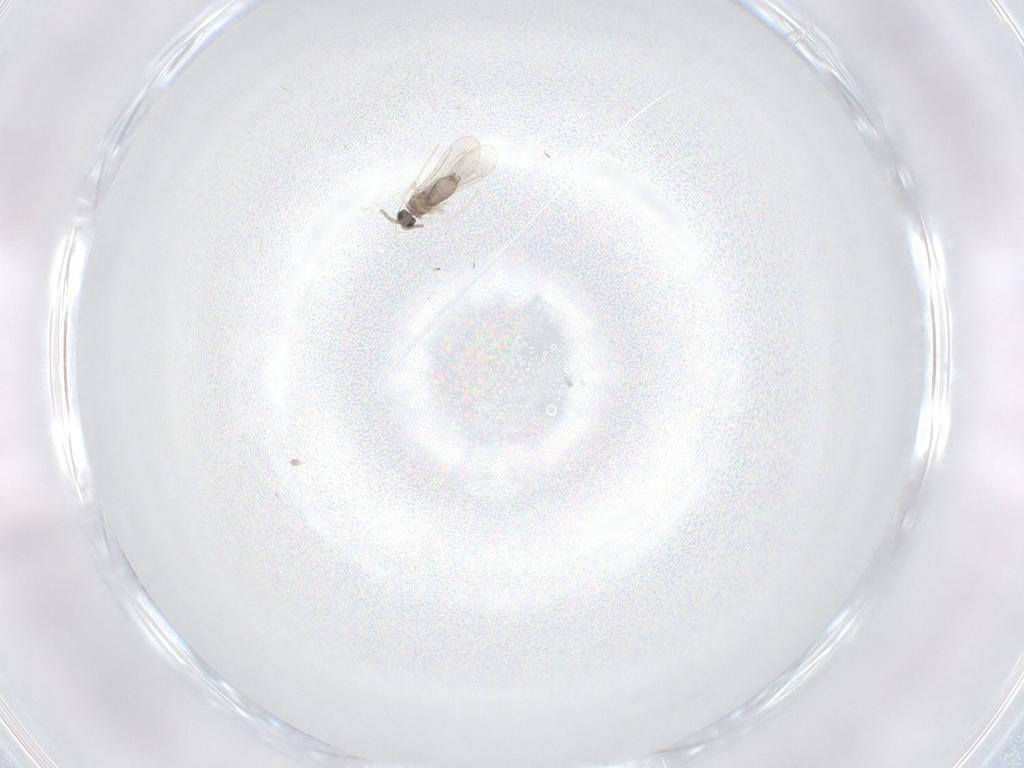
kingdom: Animalia
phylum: Arthropoda
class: Insecta
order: Diptera
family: Cecidomyiidae
